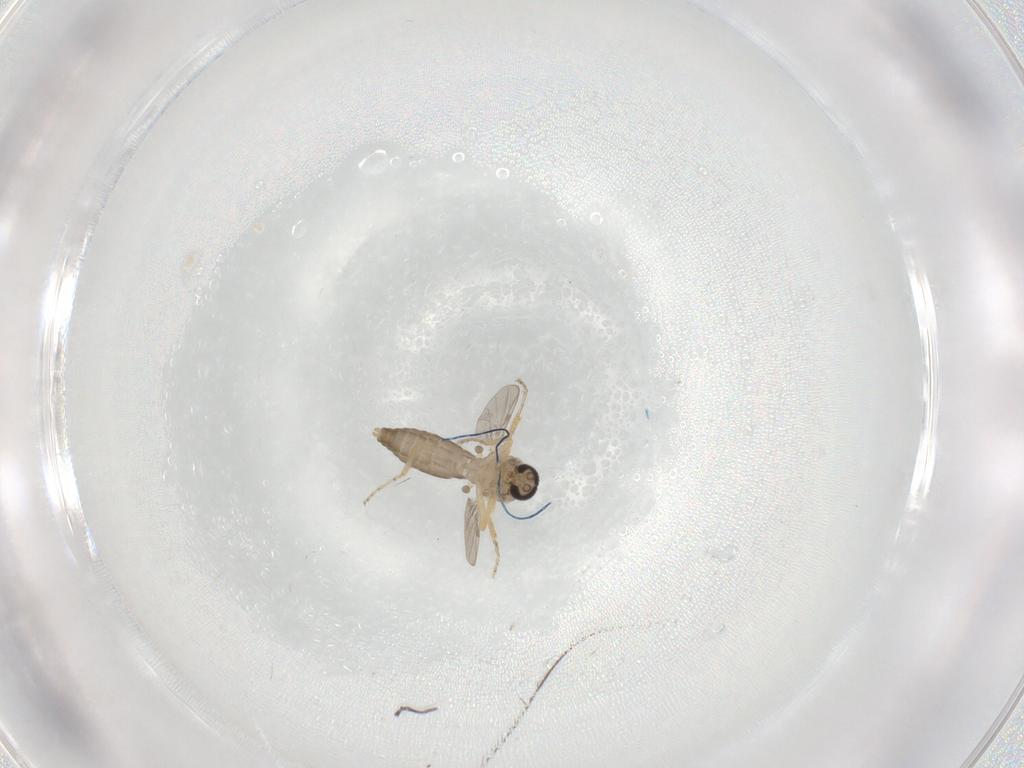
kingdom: Animalia
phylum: Arthropoda
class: Insecta
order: Diptera
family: Ceratopogonidae
